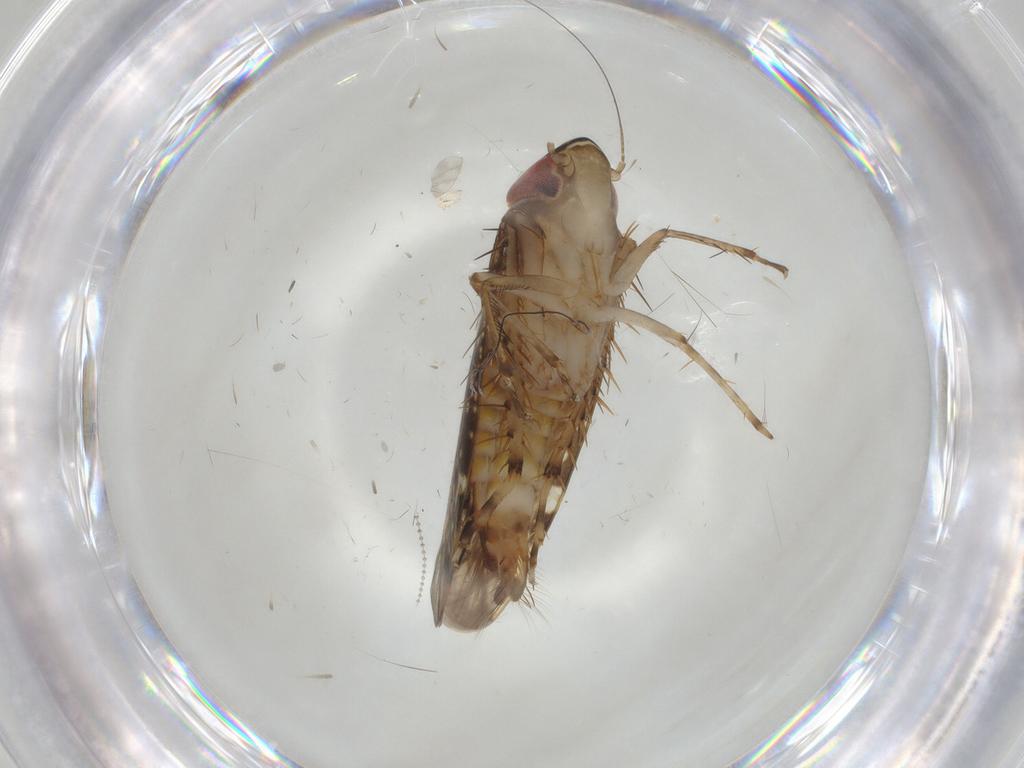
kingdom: Animalia
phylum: Arthropoda
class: Insecta
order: Hemiptera
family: Cicadellidae
